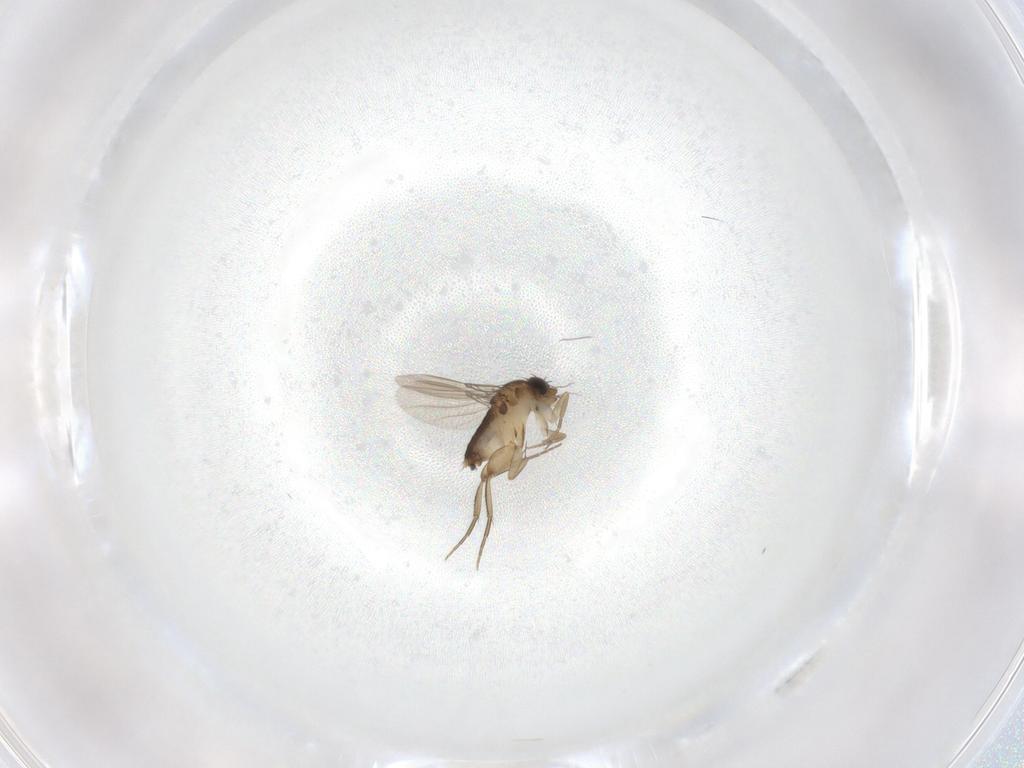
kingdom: Animalia
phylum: Arthropoda
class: Insecta
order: Diptera
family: Phoridae
